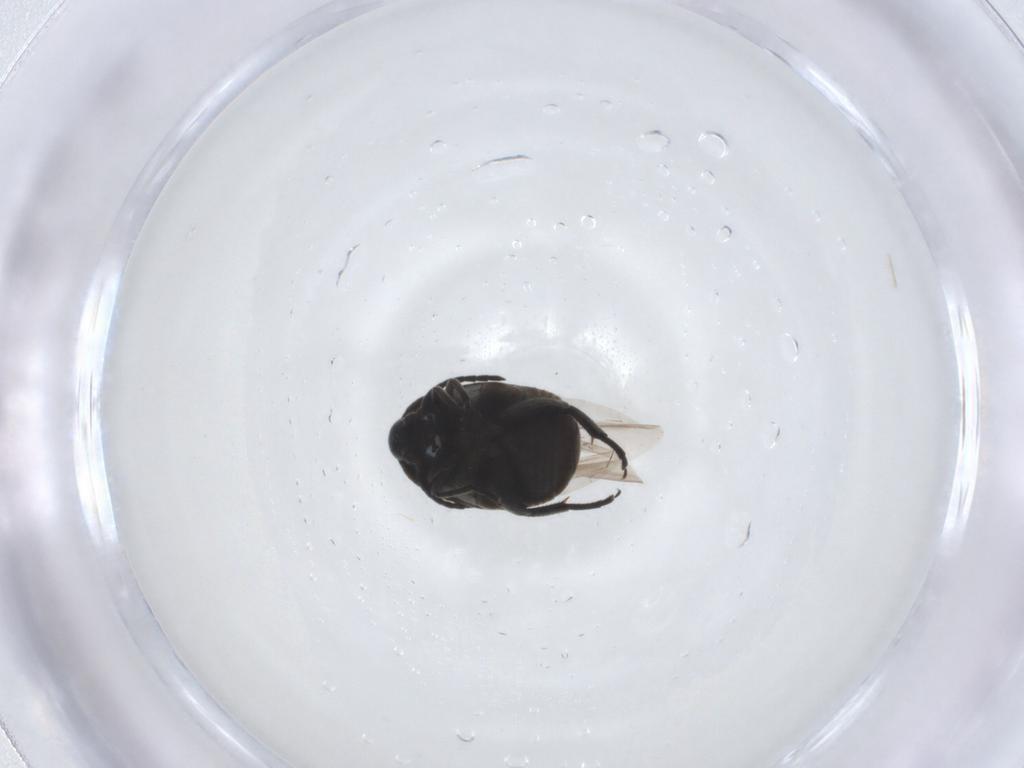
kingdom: Animalia
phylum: Arthropoda
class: Insecta
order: Coleoptera
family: Chrysomelidae
